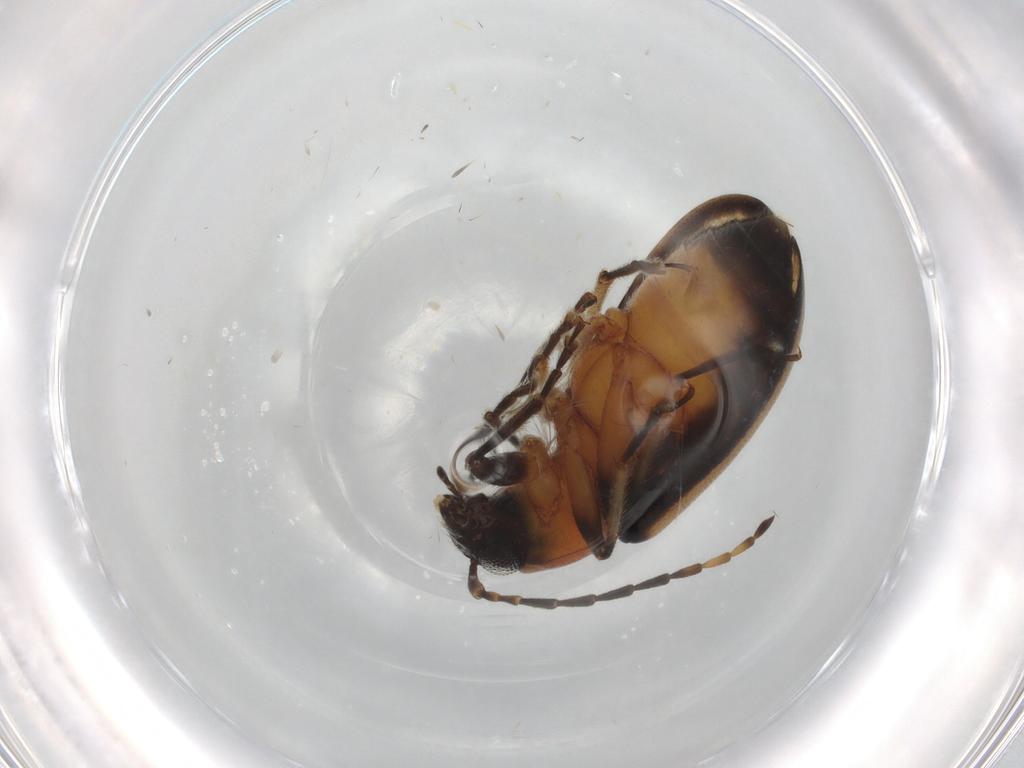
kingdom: Animalia
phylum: Arthropoda
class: Insecta
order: Coleoptera
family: Chrysomelidae
